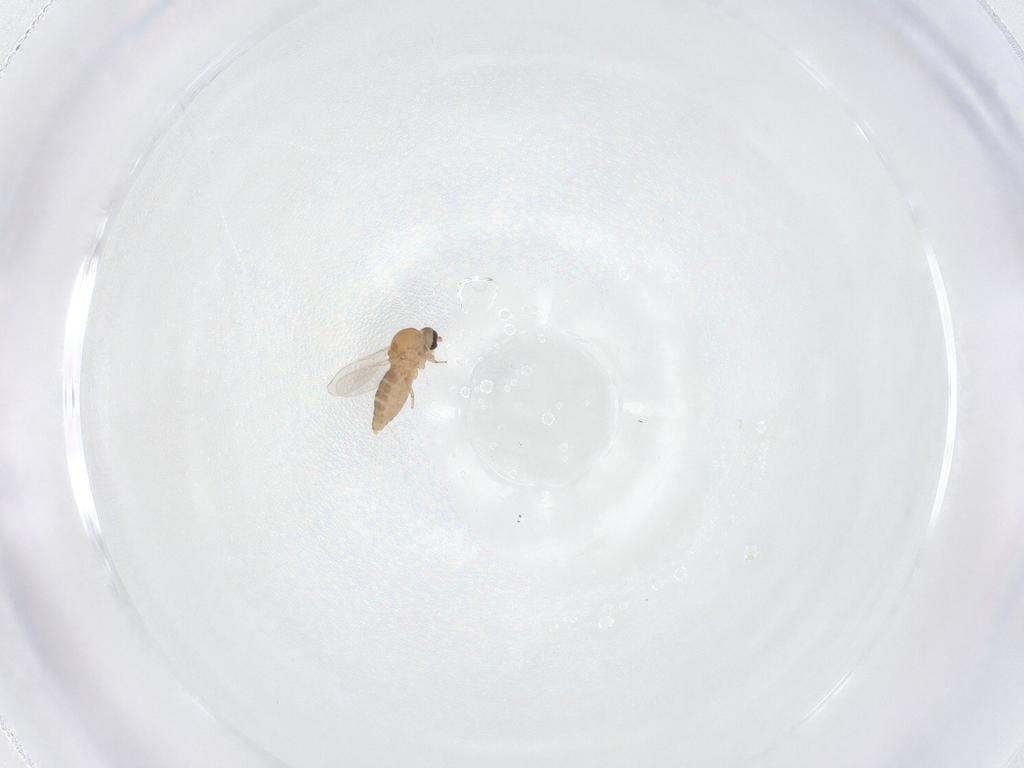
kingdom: Animalia
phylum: Arthropoda
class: Insecta
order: Diptera
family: Ceratopogonidae
